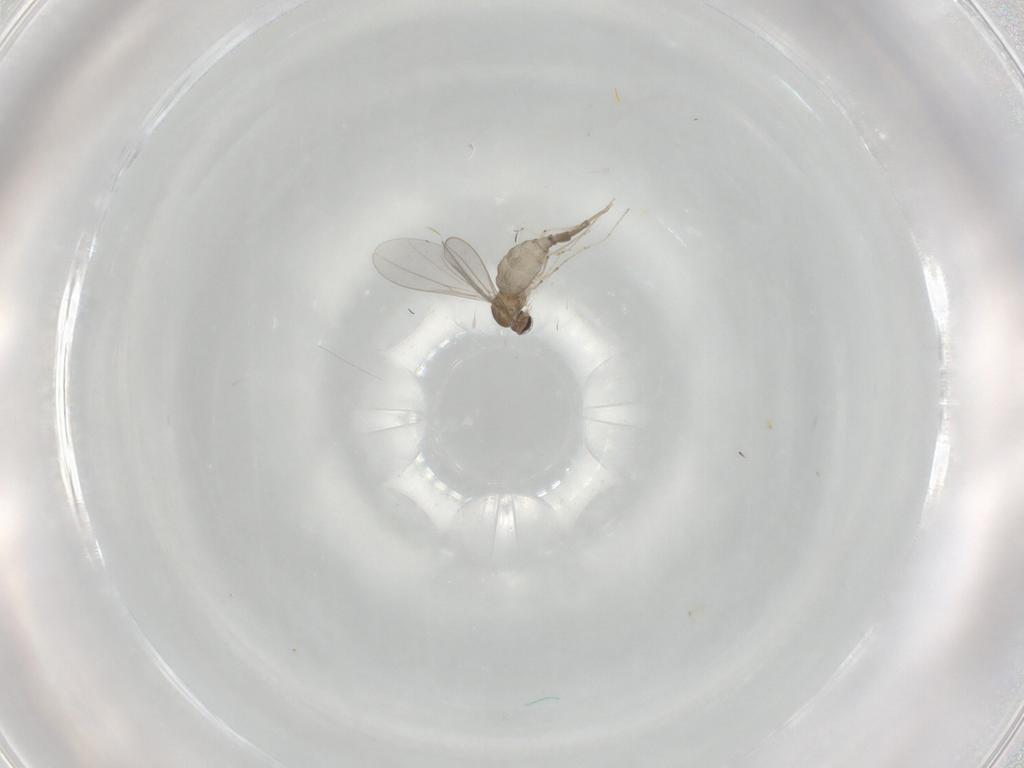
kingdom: Animalia
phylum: Arthropoda
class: Insecta
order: Diptera
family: Cecidomyiidae
